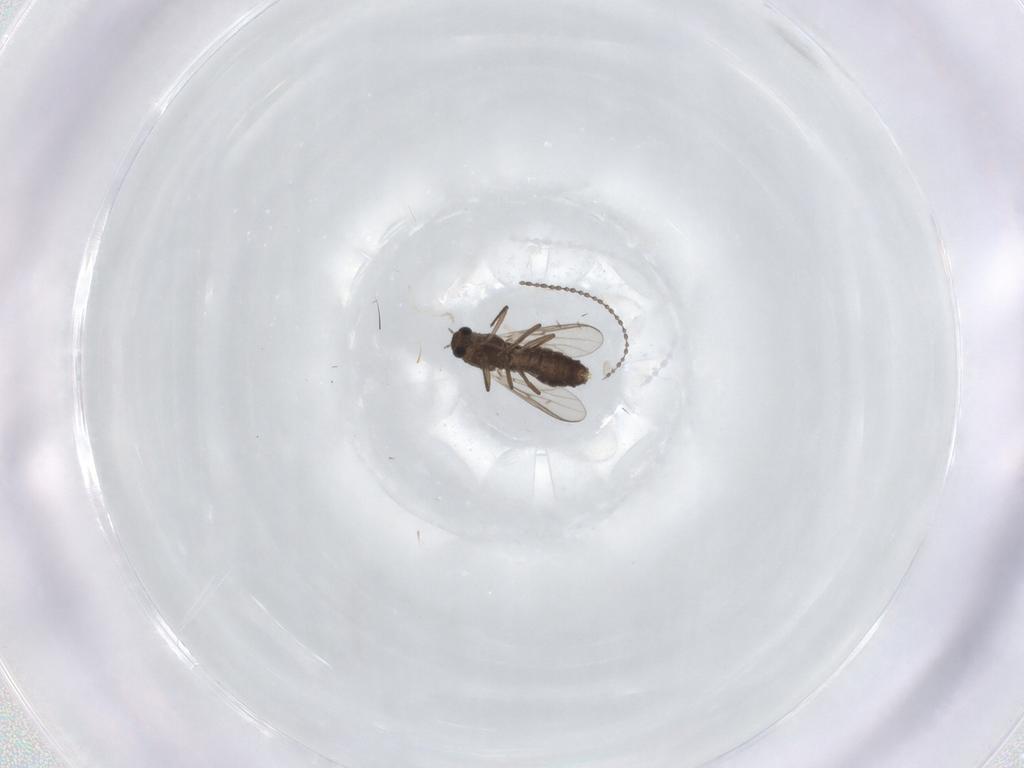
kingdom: Animalia
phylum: Arthropoda
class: Insecta
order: Diptera
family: Chironomidae
